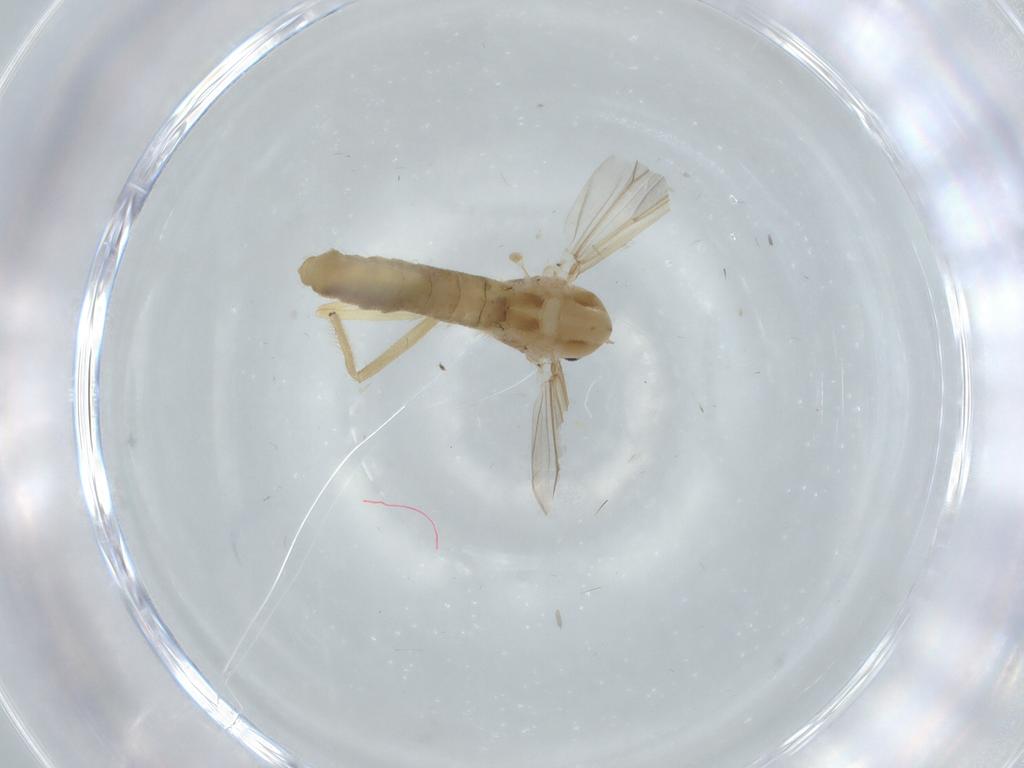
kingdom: Animalia
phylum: Arthropoda
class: Insecta
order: Diptera
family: Chironomidae
